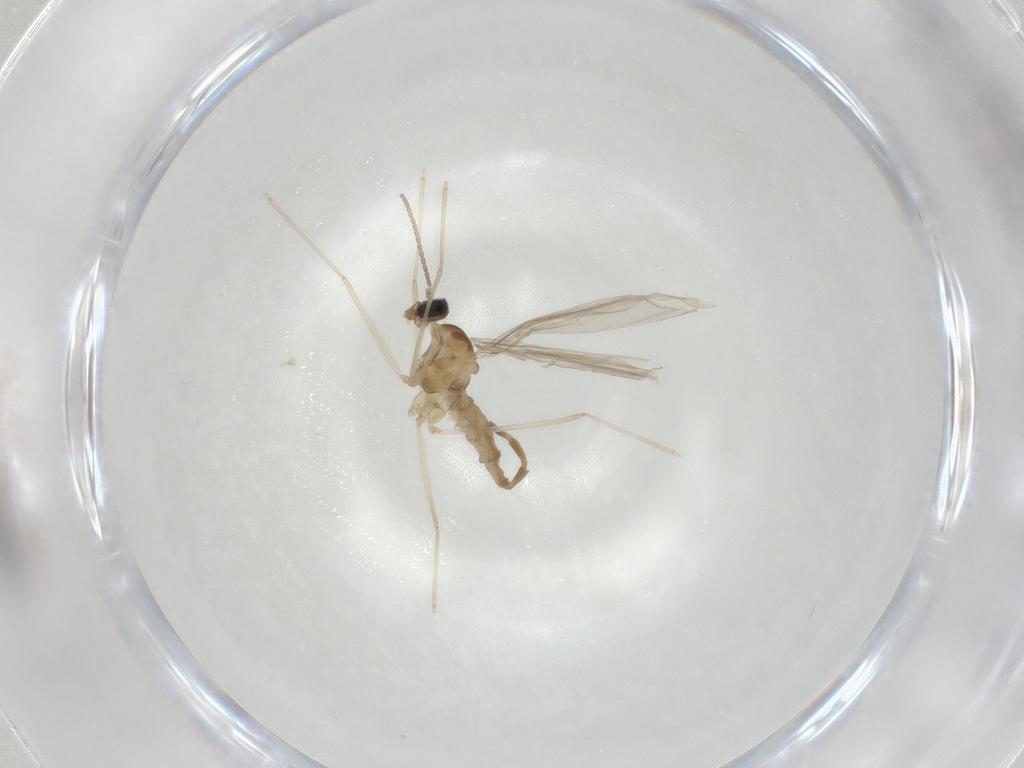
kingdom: Animalia
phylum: Arthropoda
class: Insecta
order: Diptera
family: Cecidomyiidae
